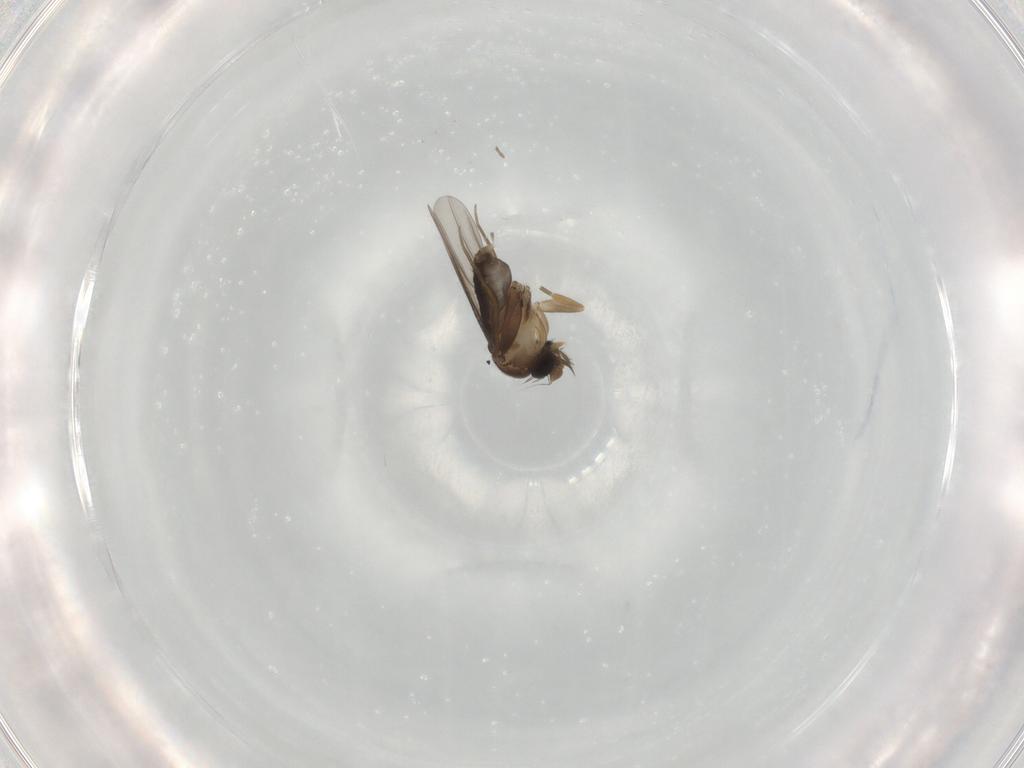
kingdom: Animalia
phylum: Arthropoda
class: Insecta
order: Diptera
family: Phoridae
